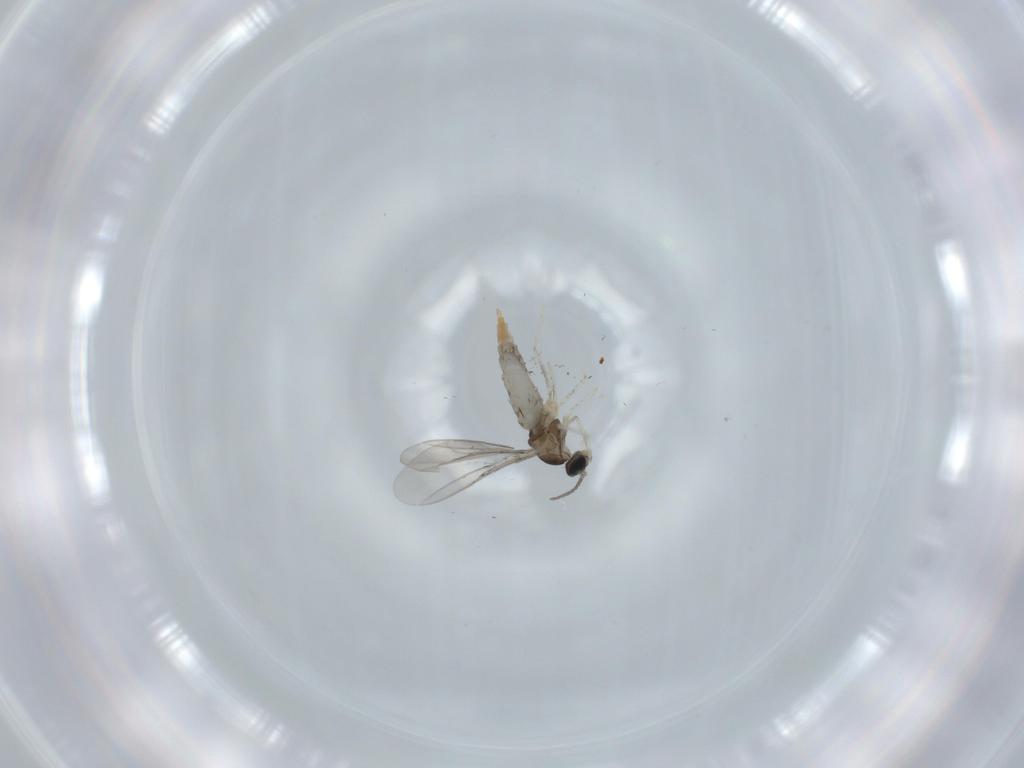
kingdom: Animalia
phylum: Arthropoda
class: Insecta
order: Diptera
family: Cecidomyiidae
